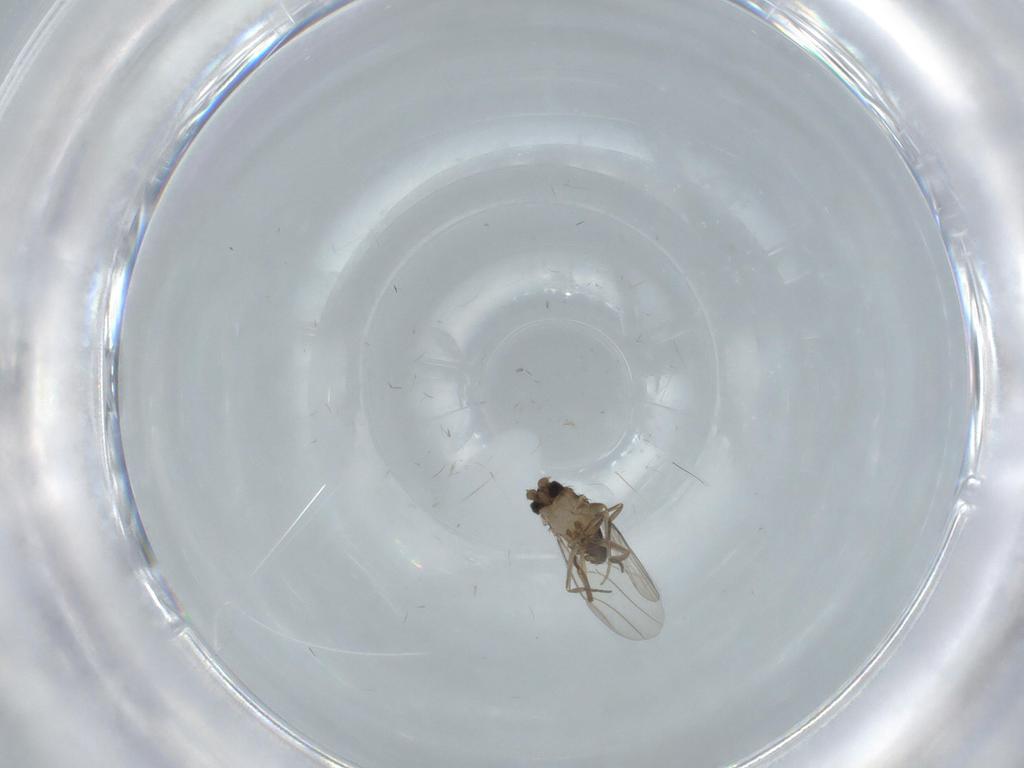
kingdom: Animalia
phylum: Arthropoda
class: Insecta
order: Diptera
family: Phoridae
